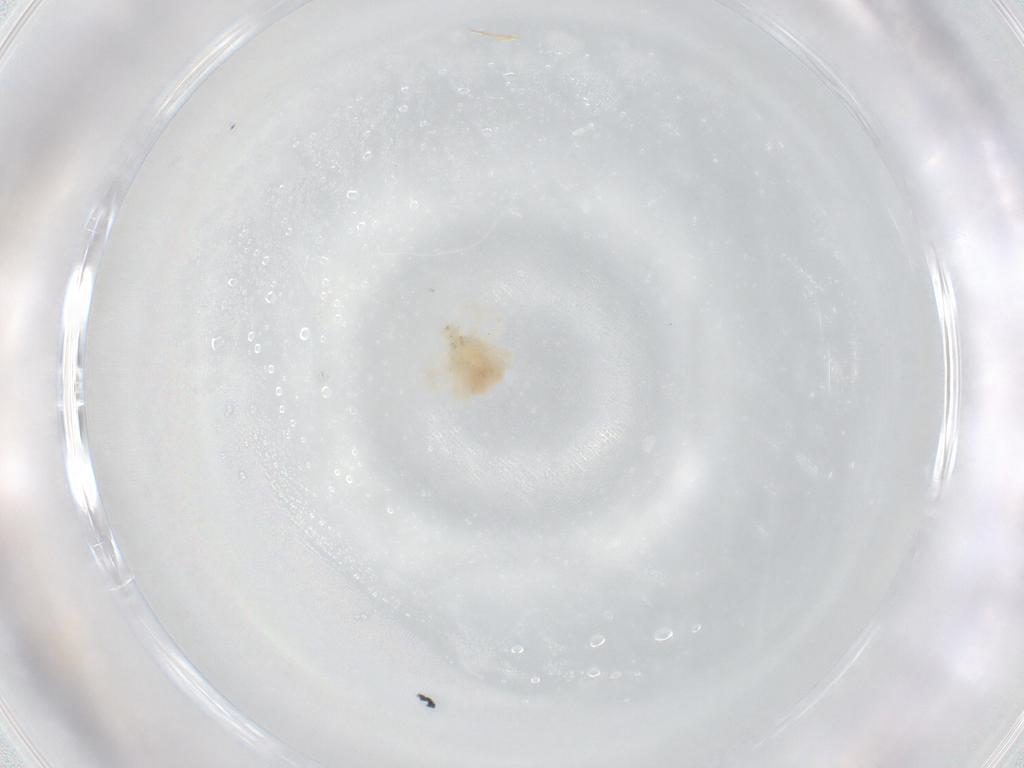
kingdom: Animalia
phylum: Arthropoda
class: Arachnida
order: Trombidiformes
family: Anystidae
